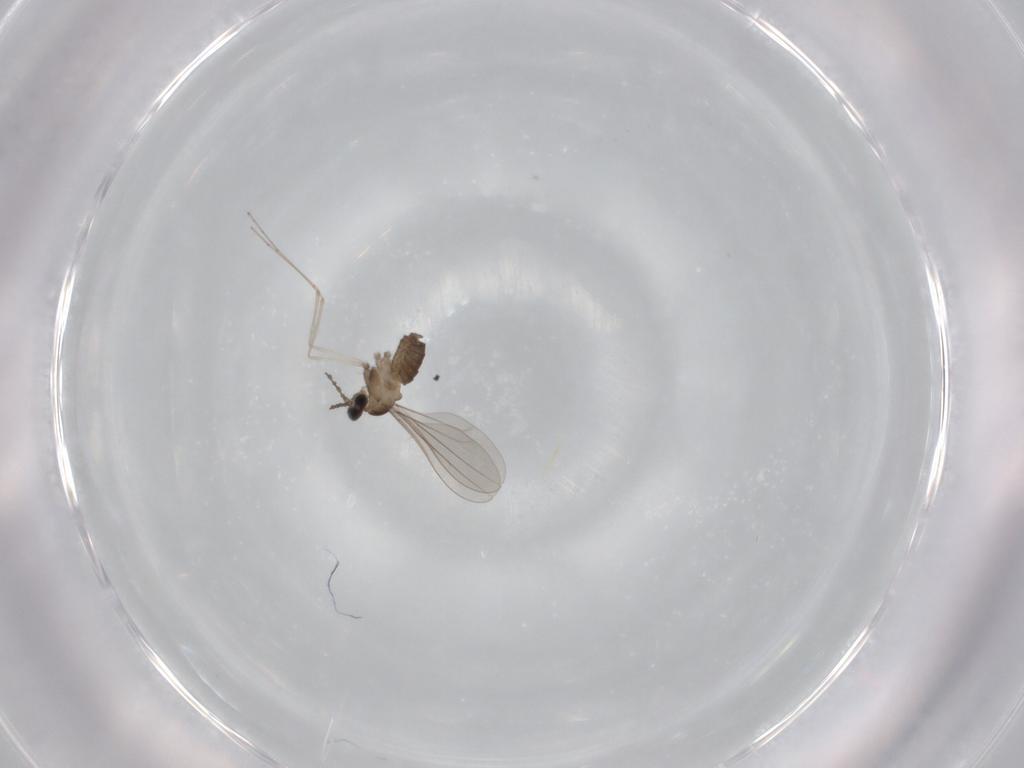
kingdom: Animalia
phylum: Arthropoda
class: Insecta
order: Diptera
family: Cecidomyiidae
